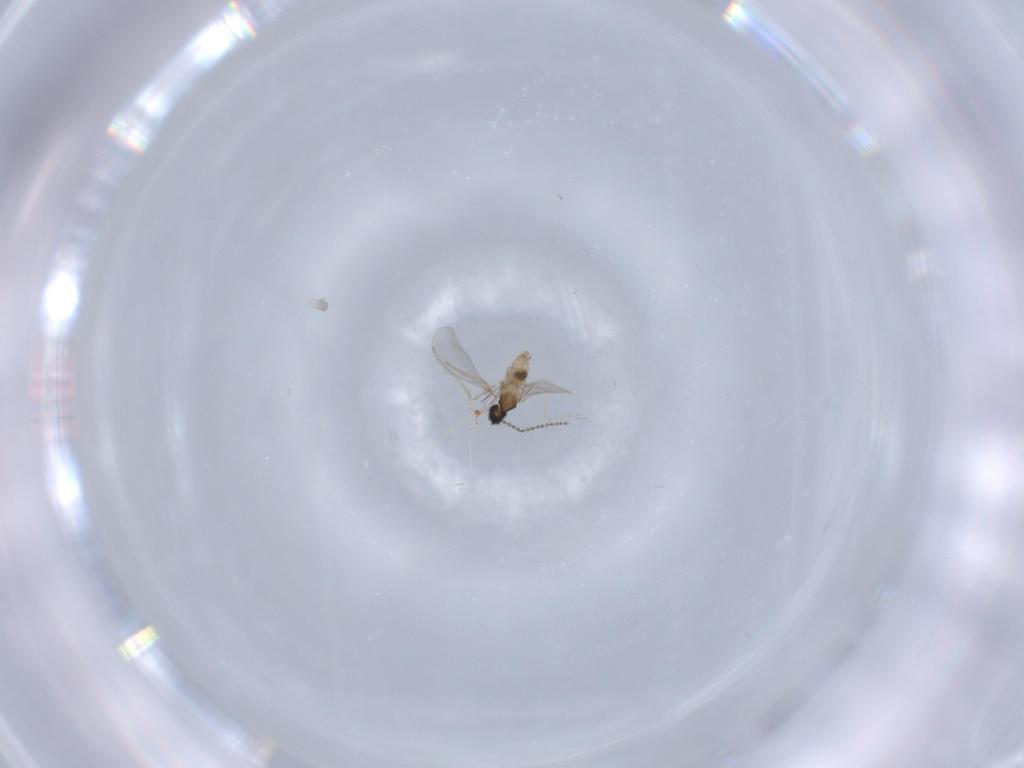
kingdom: Animalia
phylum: Arthropoda
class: Insecta
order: Diptera
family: Cecidomyiidae
